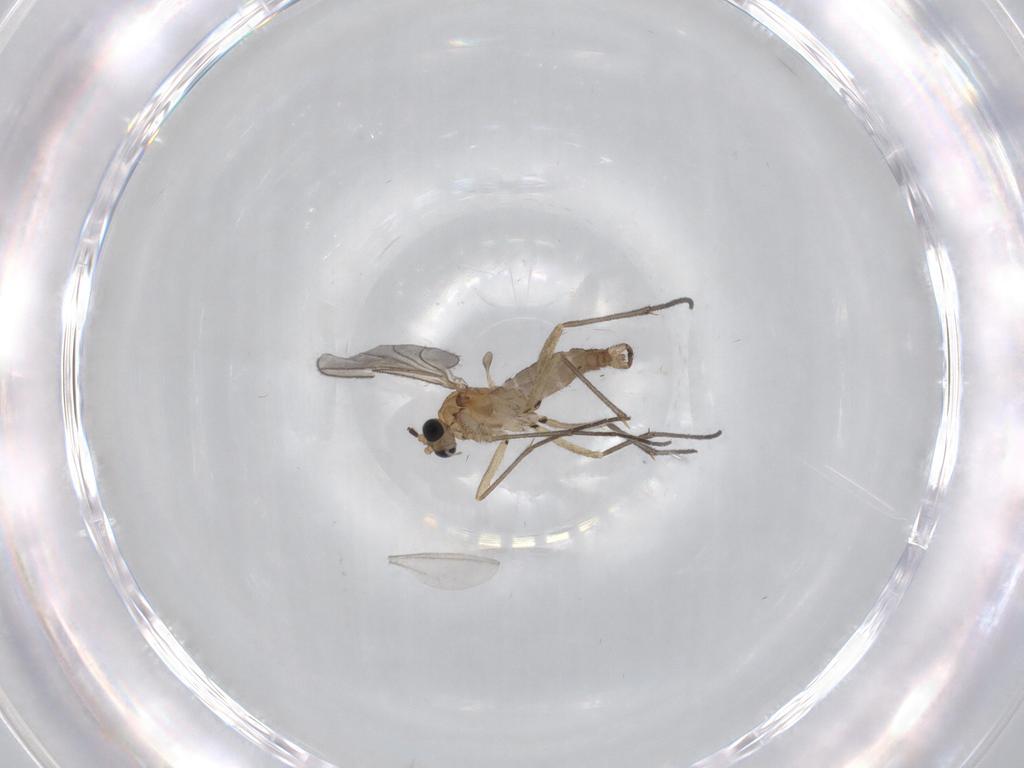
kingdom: Animalia
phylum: Arthropoda
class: Insecta
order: Diptera
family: Sciaridae
